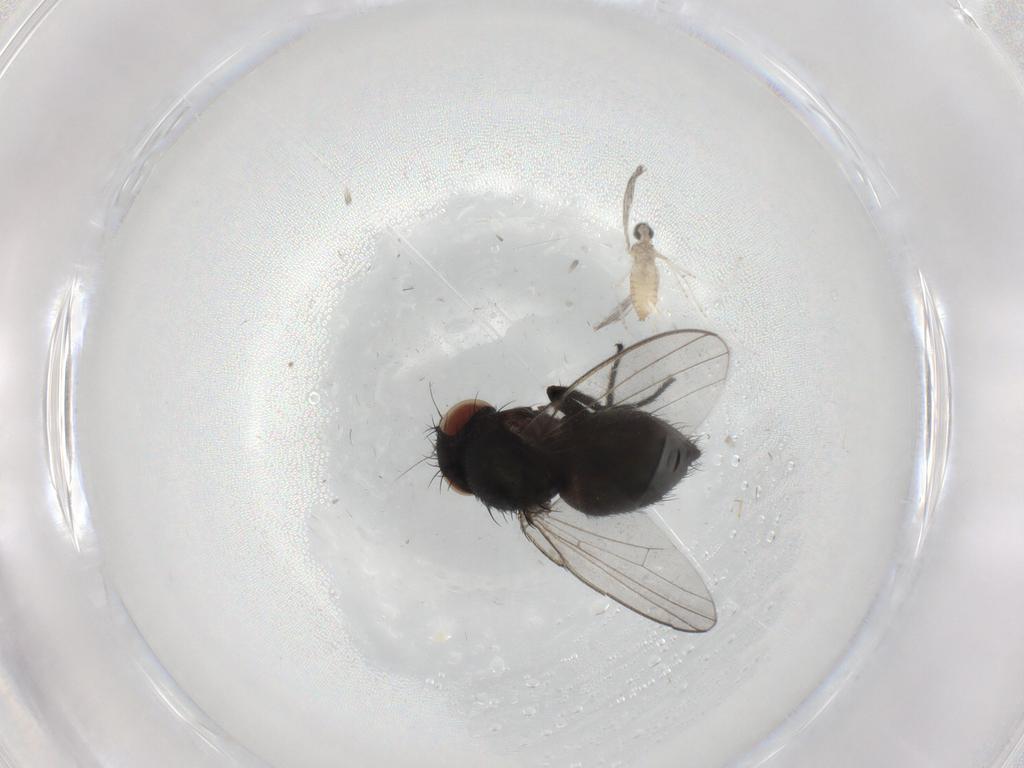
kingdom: Animalia
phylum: Arthropoda
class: Insecta
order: Diptera
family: Milichiidae
